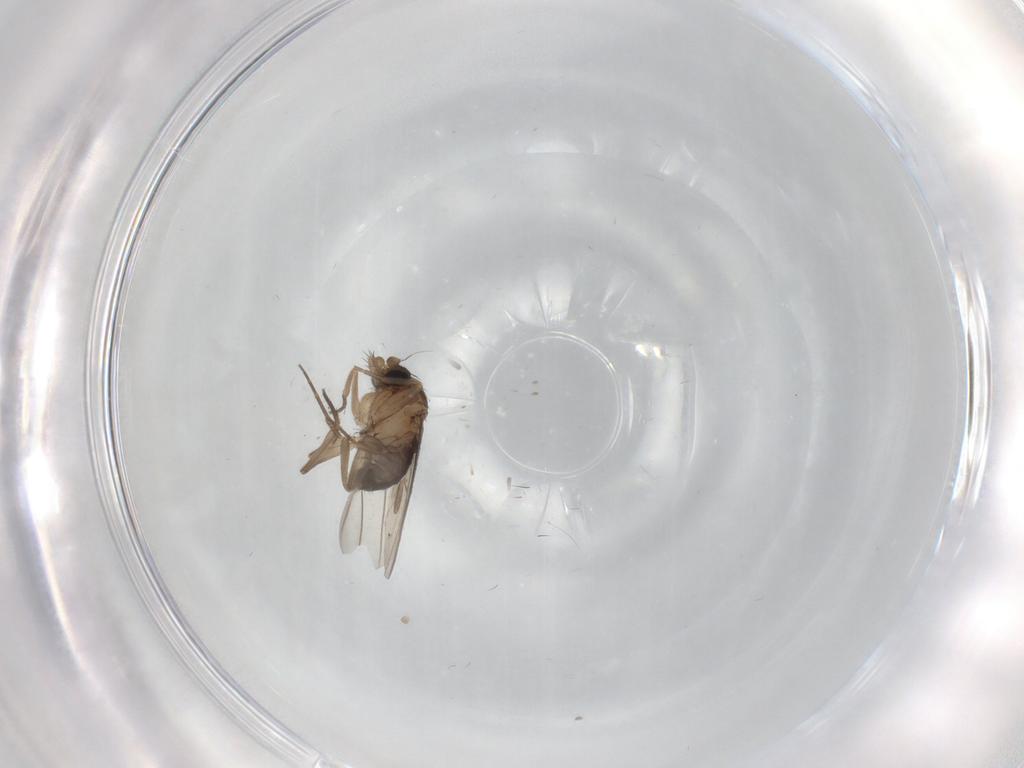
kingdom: Animalia
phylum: Arthropoda
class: Insecta
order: Diptera
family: Phoridae
